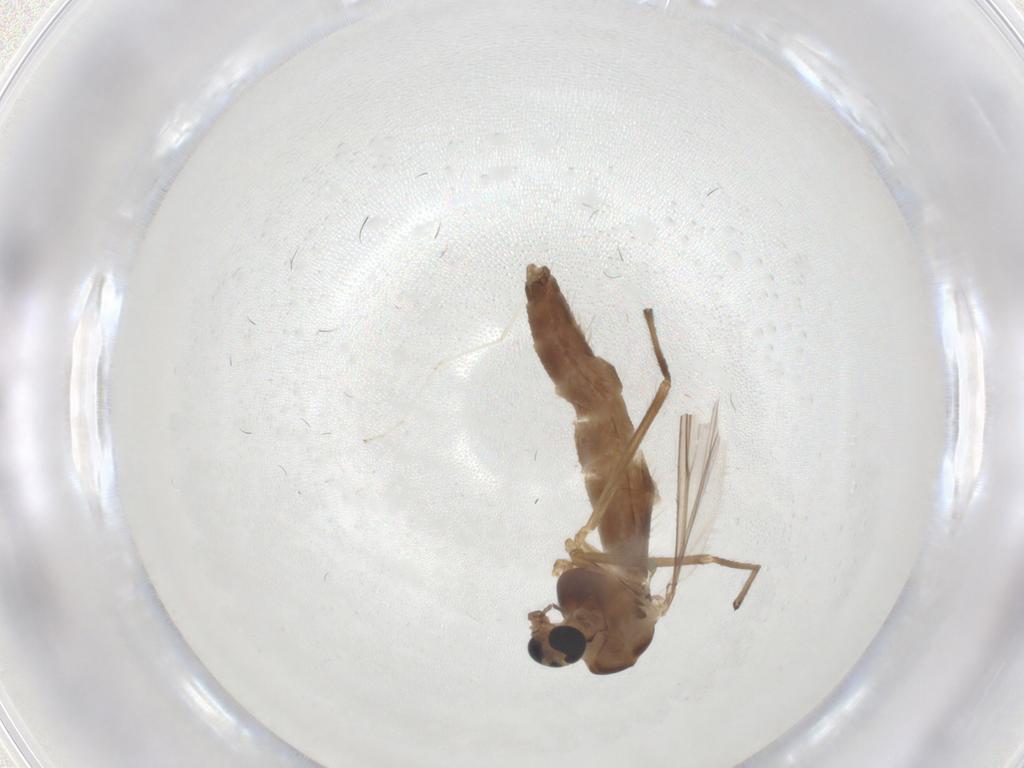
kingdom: Animalia
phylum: Arthropoda
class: Insecta
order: Diptera
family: Chironomidae
